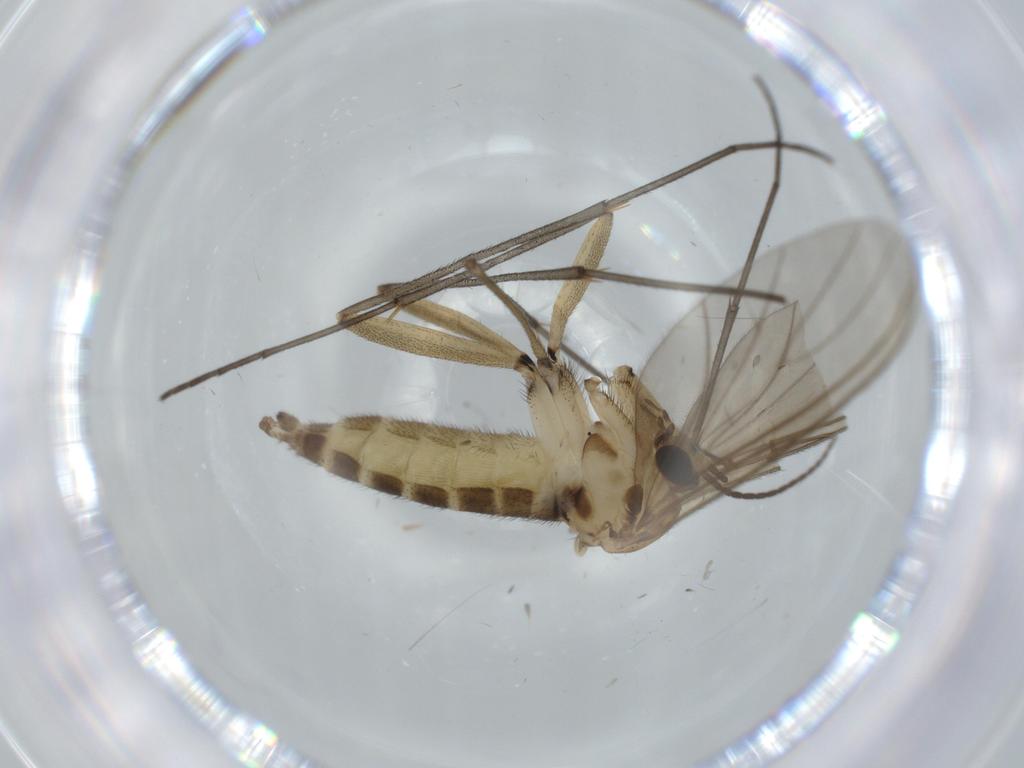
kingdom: Animalia
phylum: Arthropoda
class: Insecta
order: Diptera
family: Sciaridae
